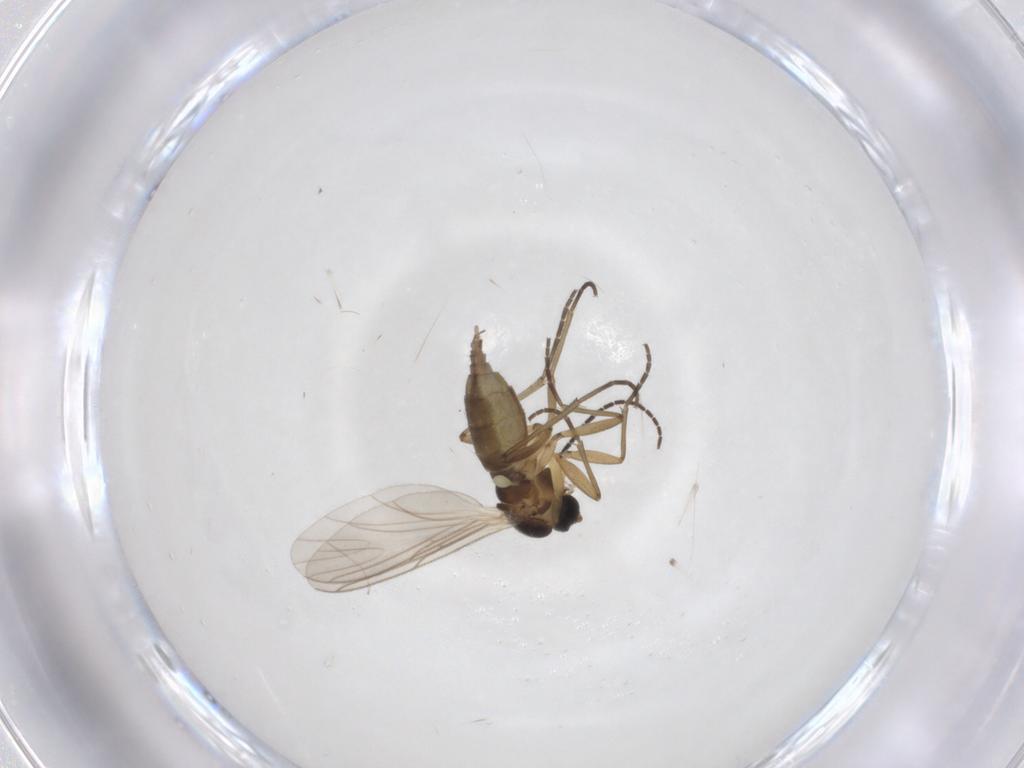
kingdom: Animalia
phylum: Arthropoda
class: Insecta
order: Diptera
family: Sciaridae
